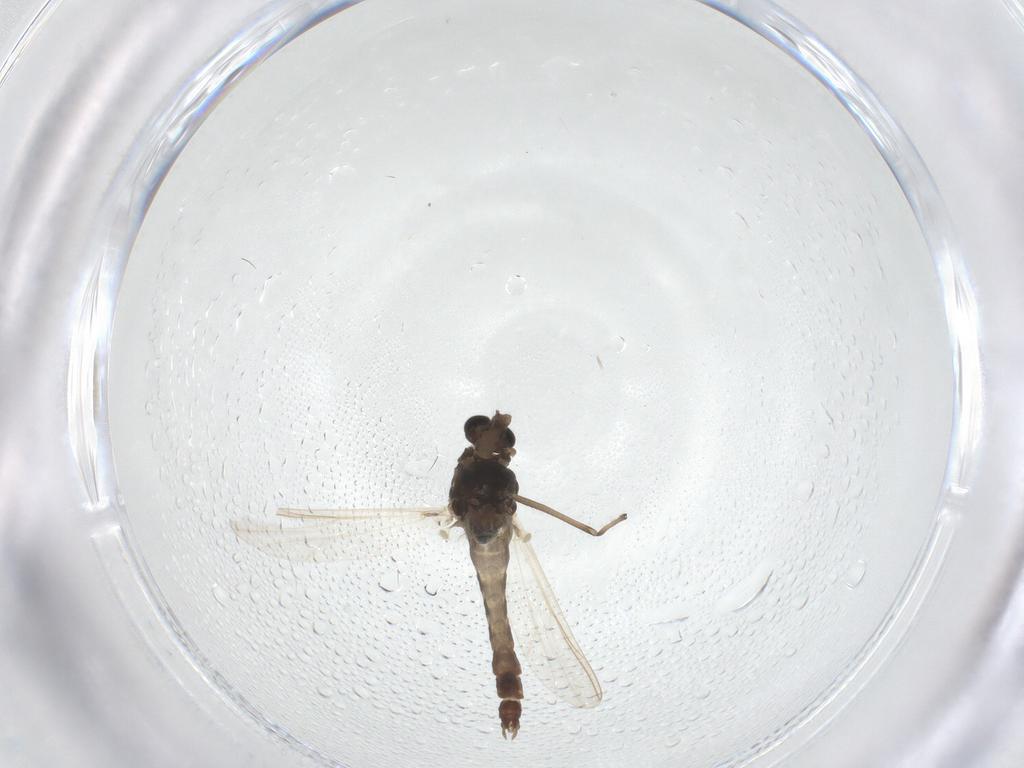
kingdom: Animalia
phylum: Arthropoda
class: Insecta
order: Diptera
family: Chironomidae
